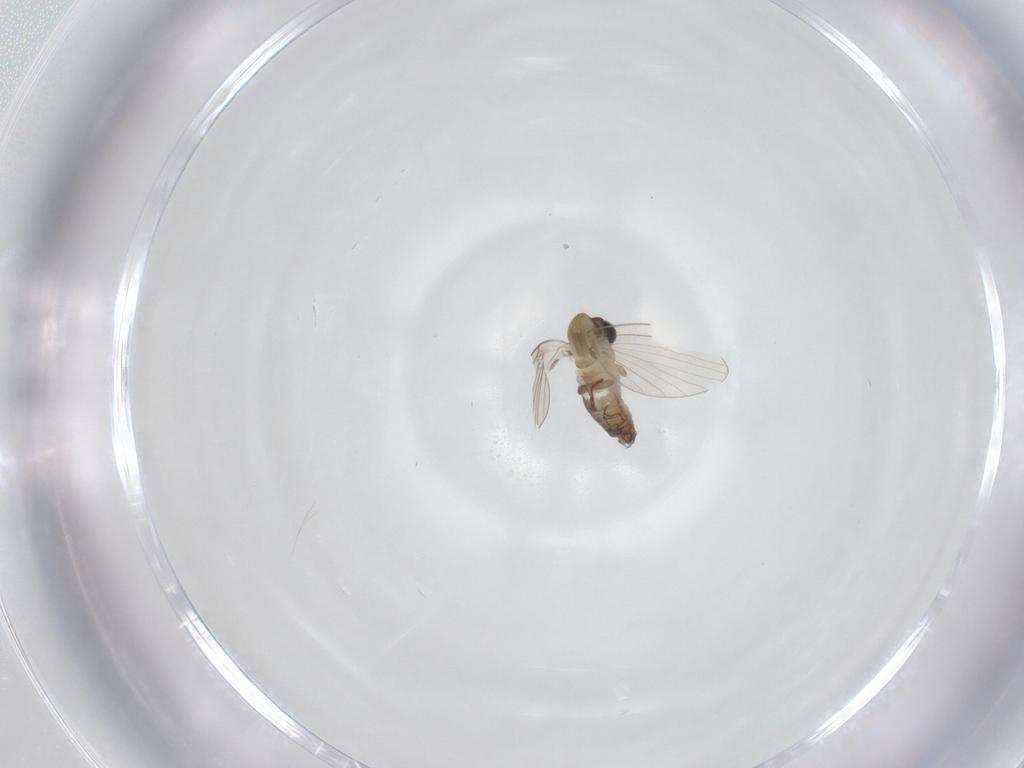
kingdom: Animalia
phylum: Arthropoda
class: Insecta
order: Diptera
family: Psychodidae
